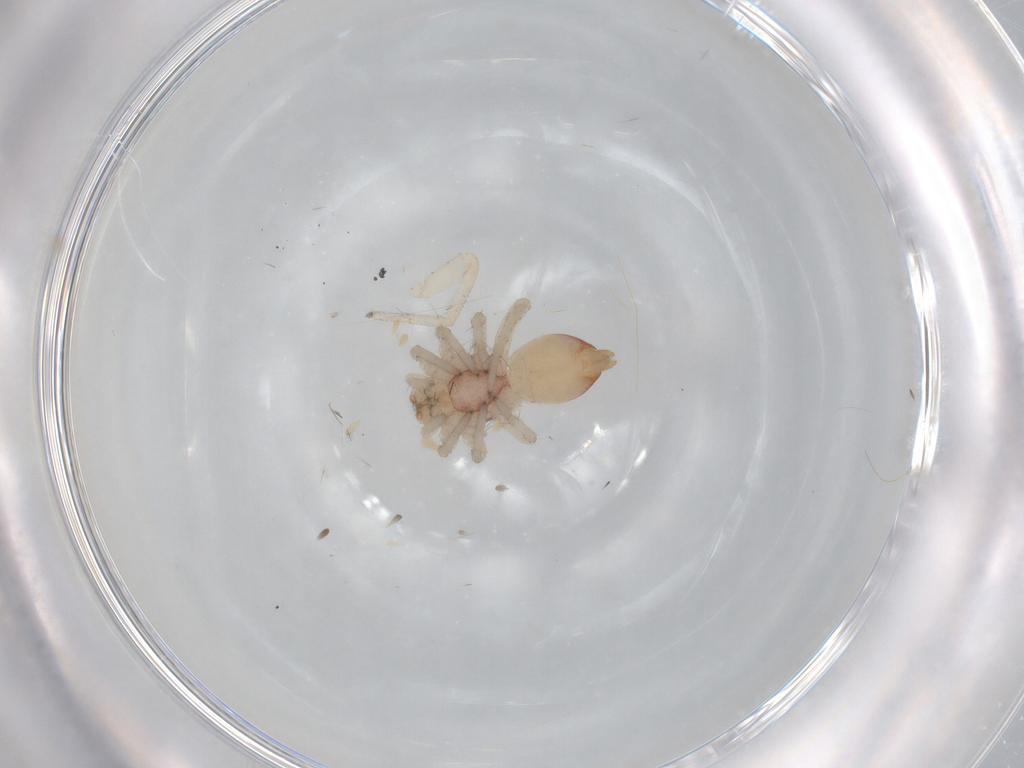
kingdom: Animalia
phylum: Arthropoda
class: Arachnida
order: Araneae
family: Clubionidae
